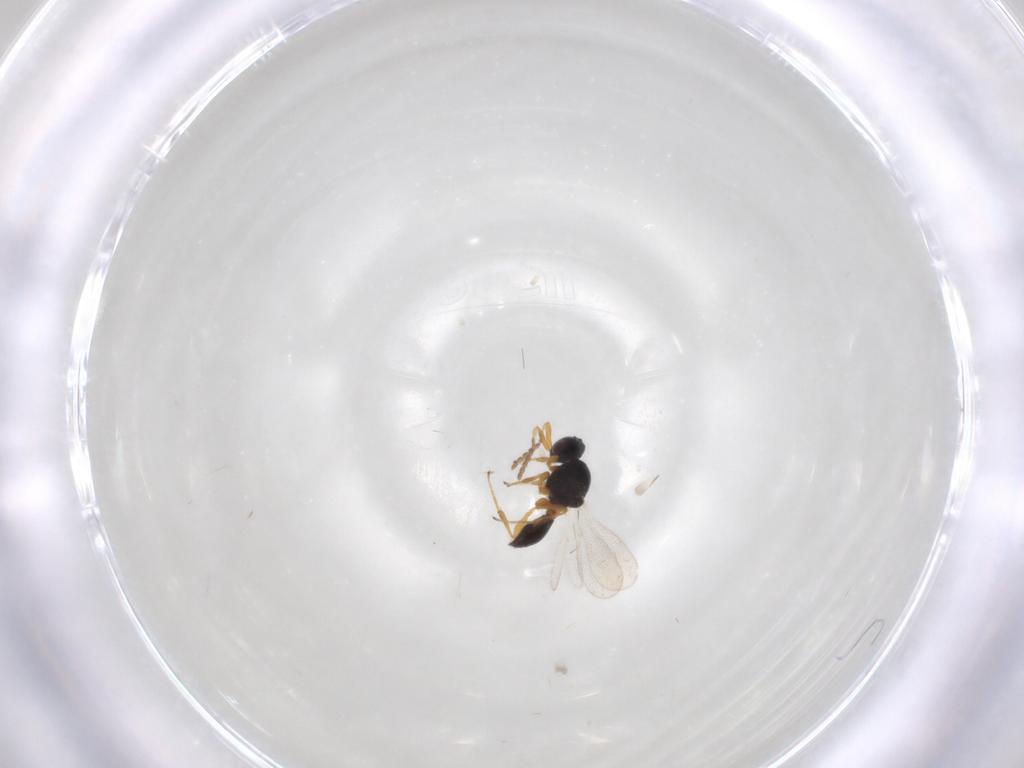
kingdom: Animalia
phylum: Arthropoda
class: Insecta
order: Hymenoptera
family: Platygastridae
